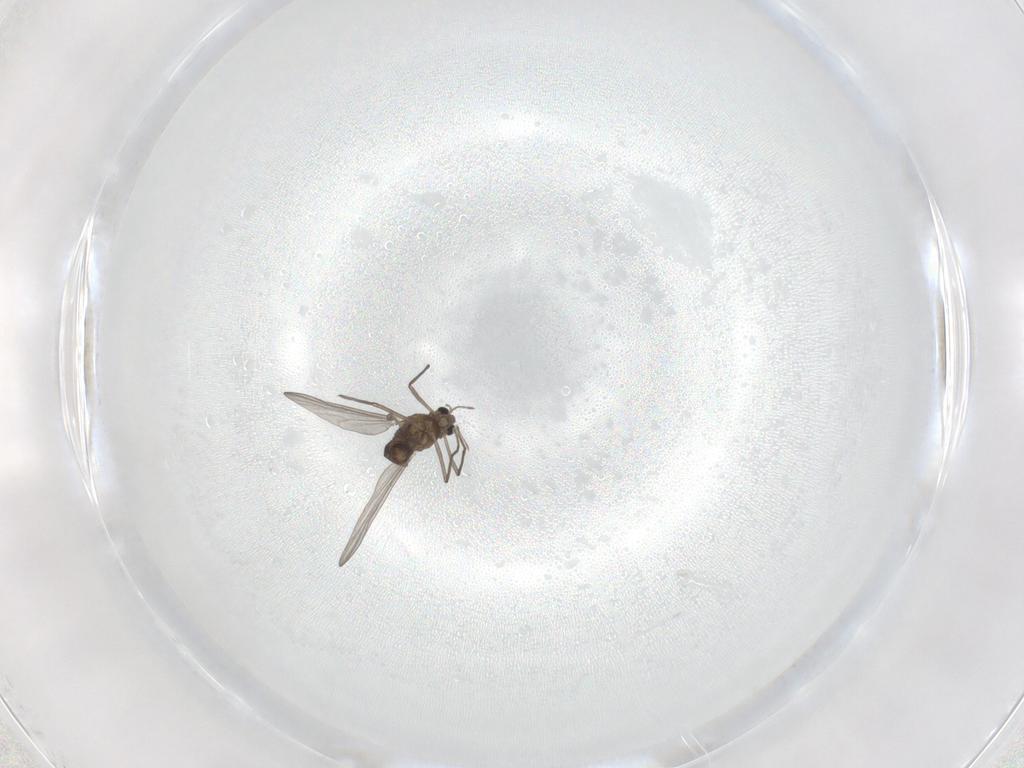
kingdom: Animalia
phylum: Arthropoda
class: Insecta
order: Diptera
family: Chironomidae
